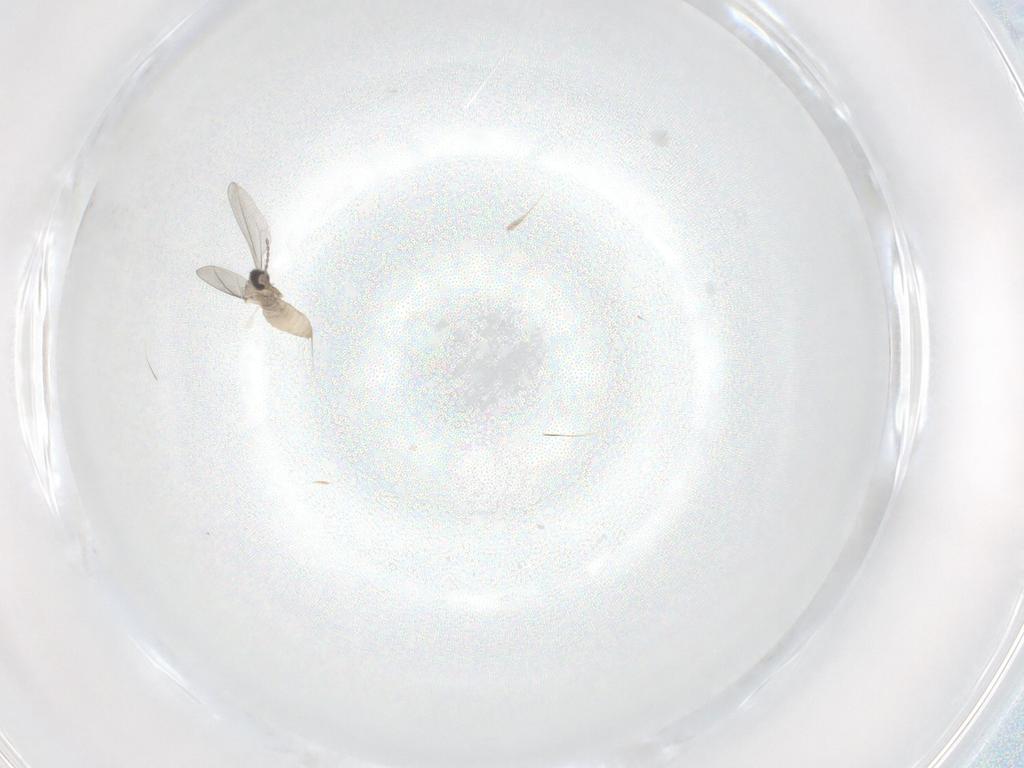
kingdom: Animalia
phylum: Arthropoda
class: Insecta
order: Diptera
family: Cecidomyiidae
